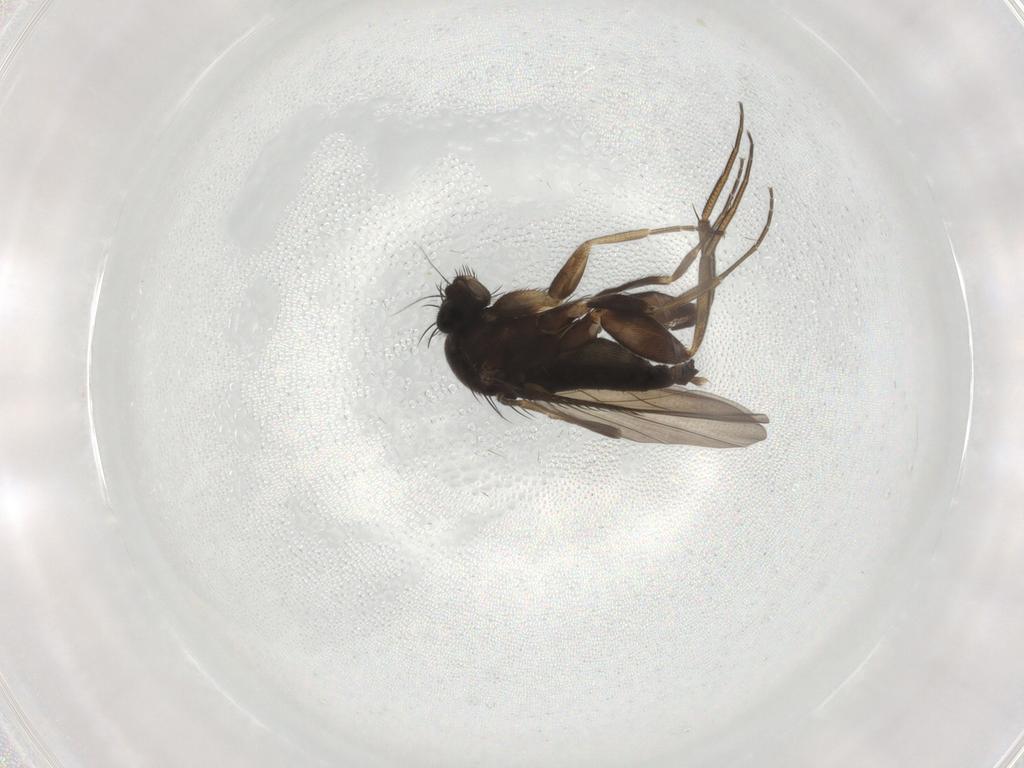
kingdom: Animalia
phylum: Arthropoda
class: Insecta
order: Diptera
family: Phoridae
